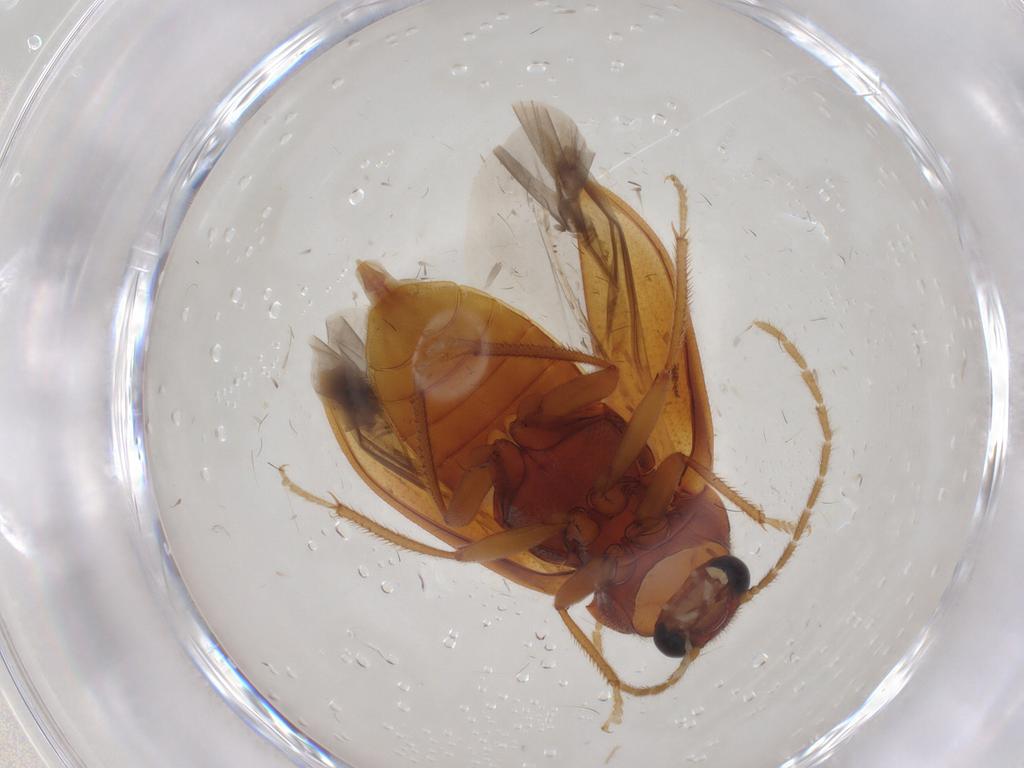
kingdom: Animalia
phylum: Arthropoda
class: Insecta
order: Coleoptera
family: Ptilodactylidae
